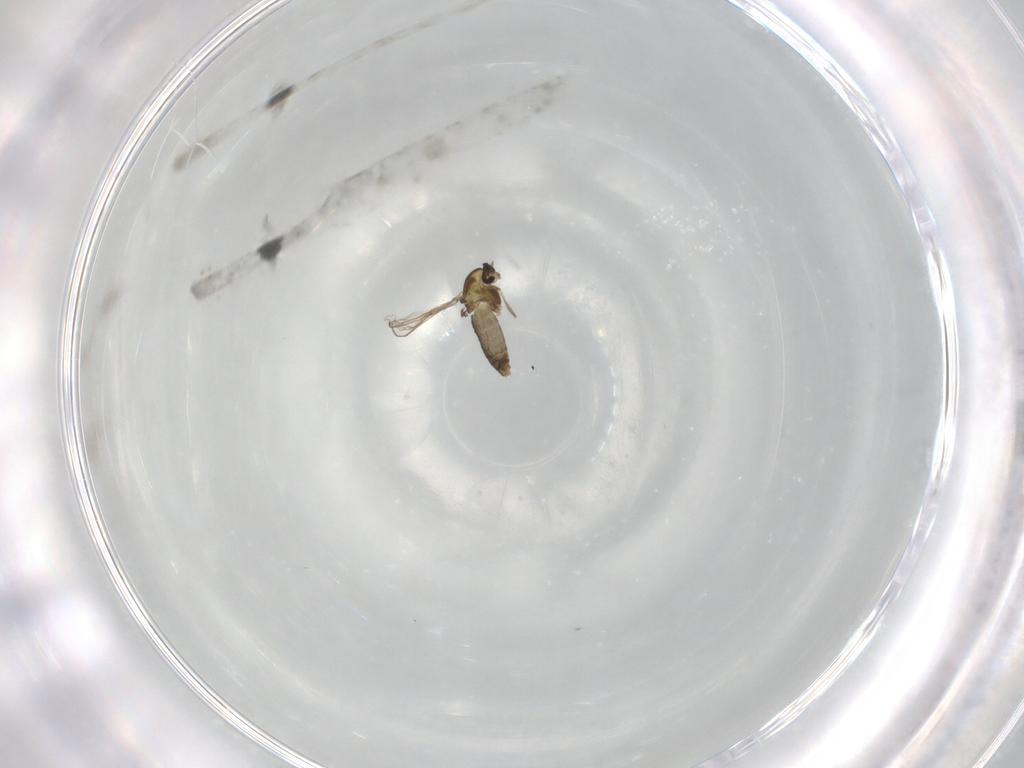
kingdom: Animalia
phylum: Arthropoda
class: Insecta
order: Diptera
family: Chironomidae
